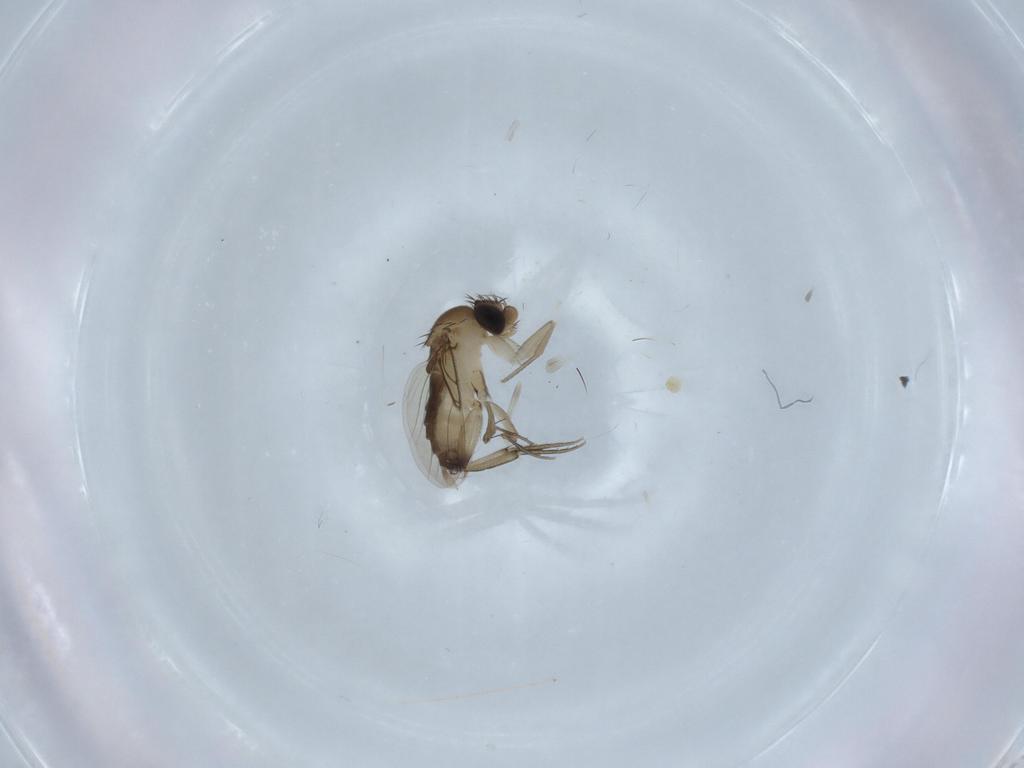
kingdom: Animalia
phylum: Arthropoda
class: Insecta
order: Diptera
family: Phoridae
